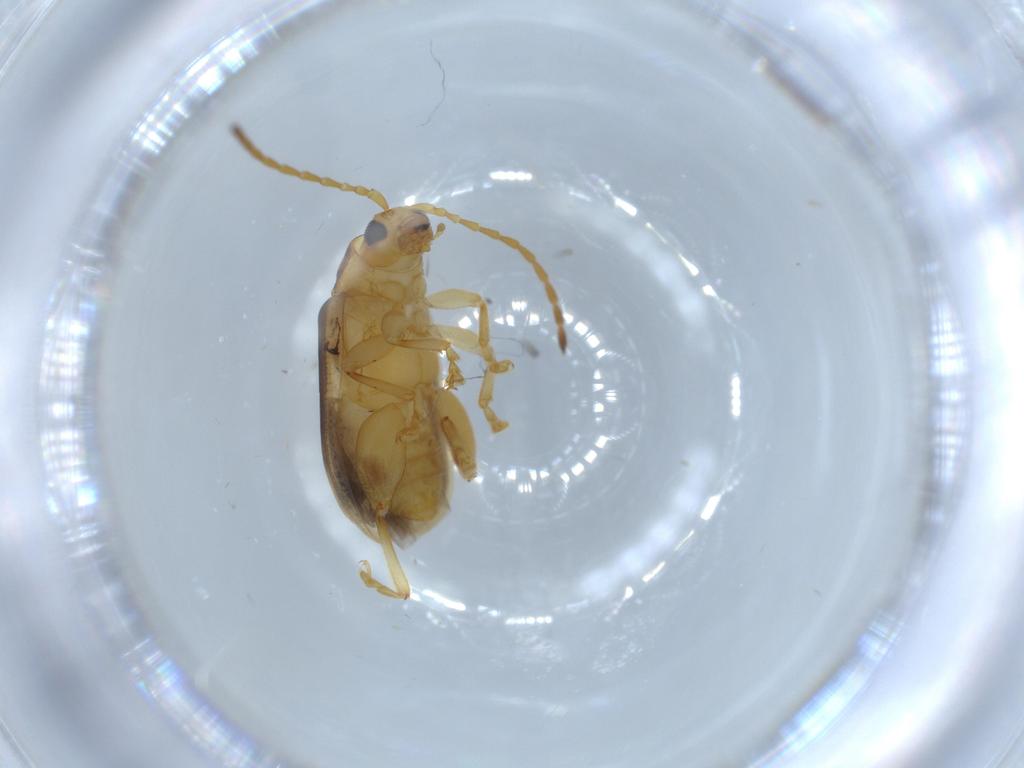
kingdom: Animalia
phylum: Arthropoda
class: Insecta
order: Coleoptera
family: Chrysomelidae
